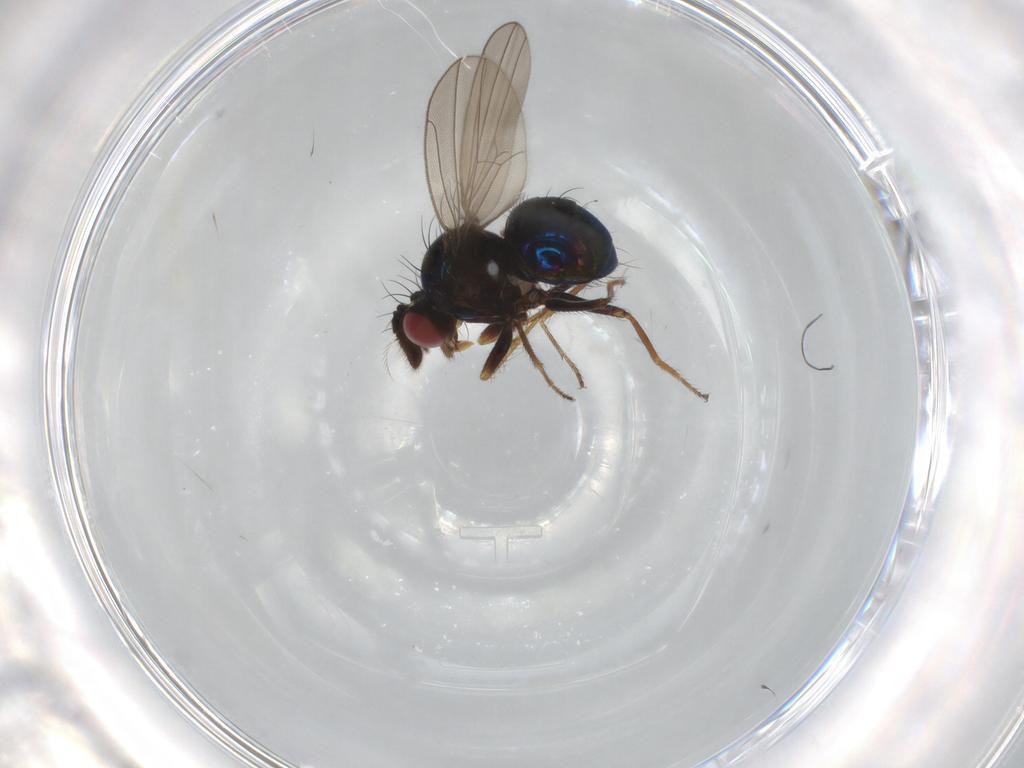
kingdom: Animalia
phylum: Arthropoda
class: Insecta
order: Diptera
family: Ephydridae
